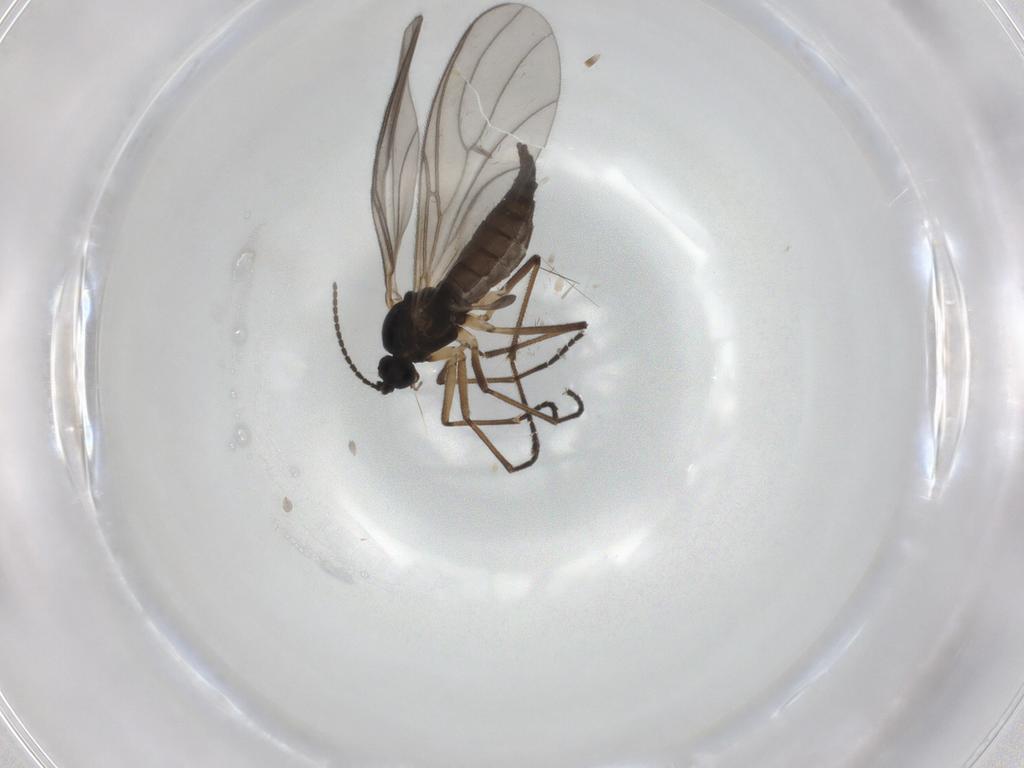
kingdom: Animalia
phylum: Arthropoda
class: Insecta
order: Diptera
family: Sciaridae
